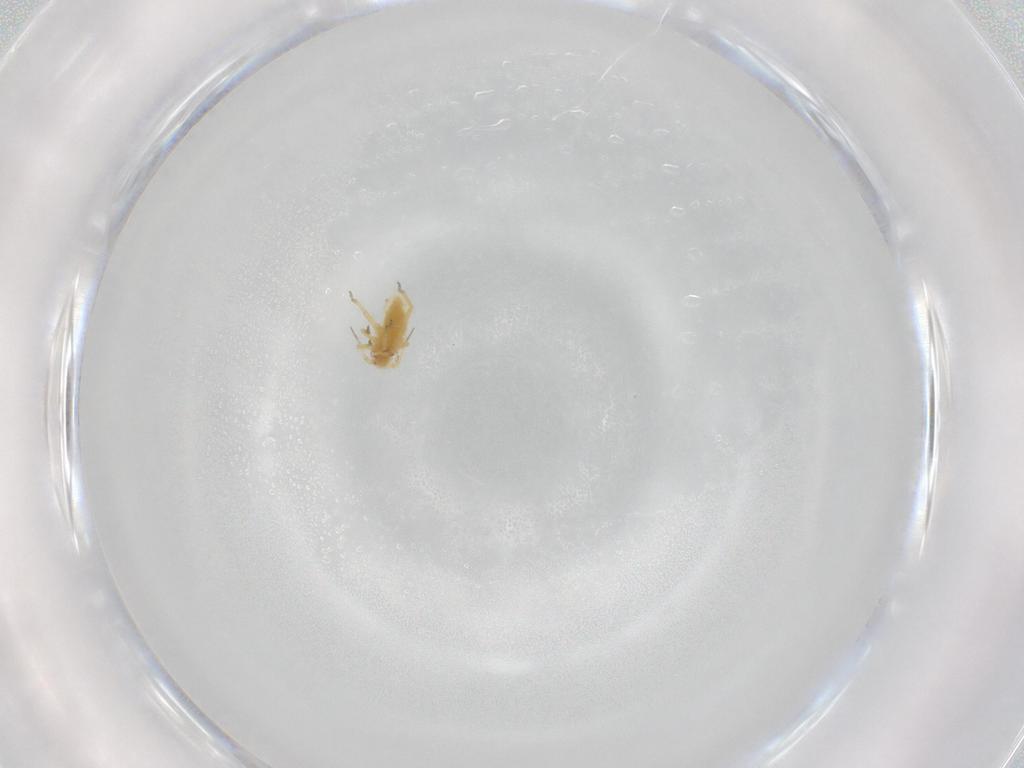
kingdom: Animalia
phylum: Arthropoda
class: Insecta
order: Hemiptera
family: Aphididae
